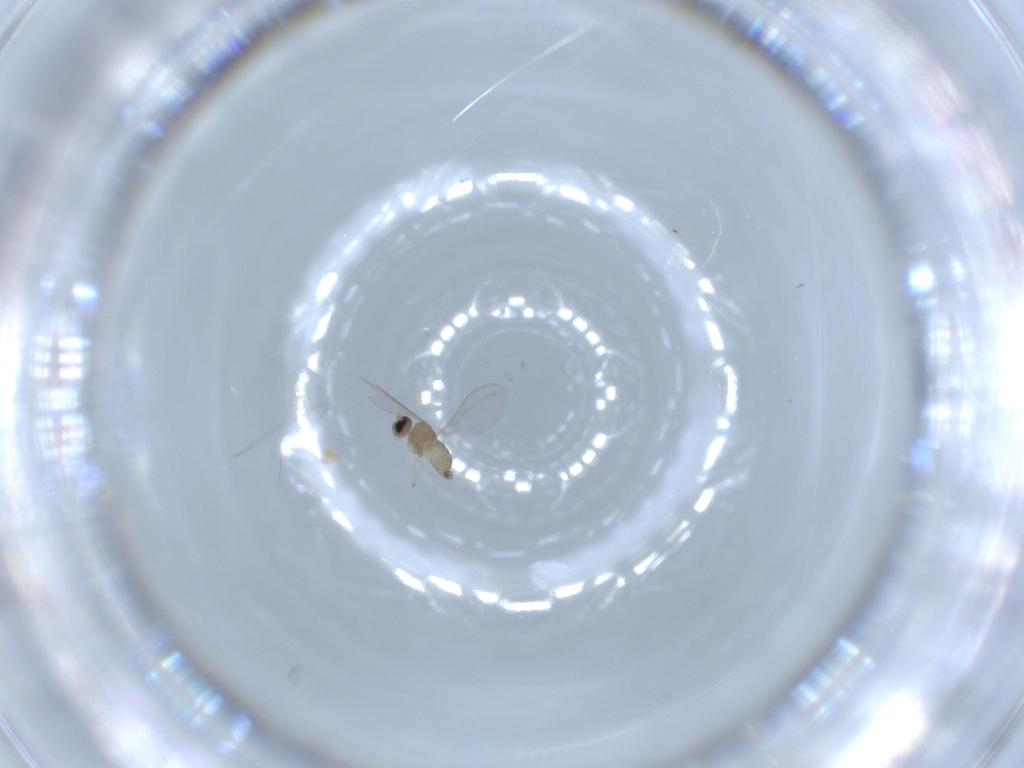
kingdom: Animalia
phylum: Arthropoda
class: Insecta
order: Diptera
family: Cecidomyiidae
